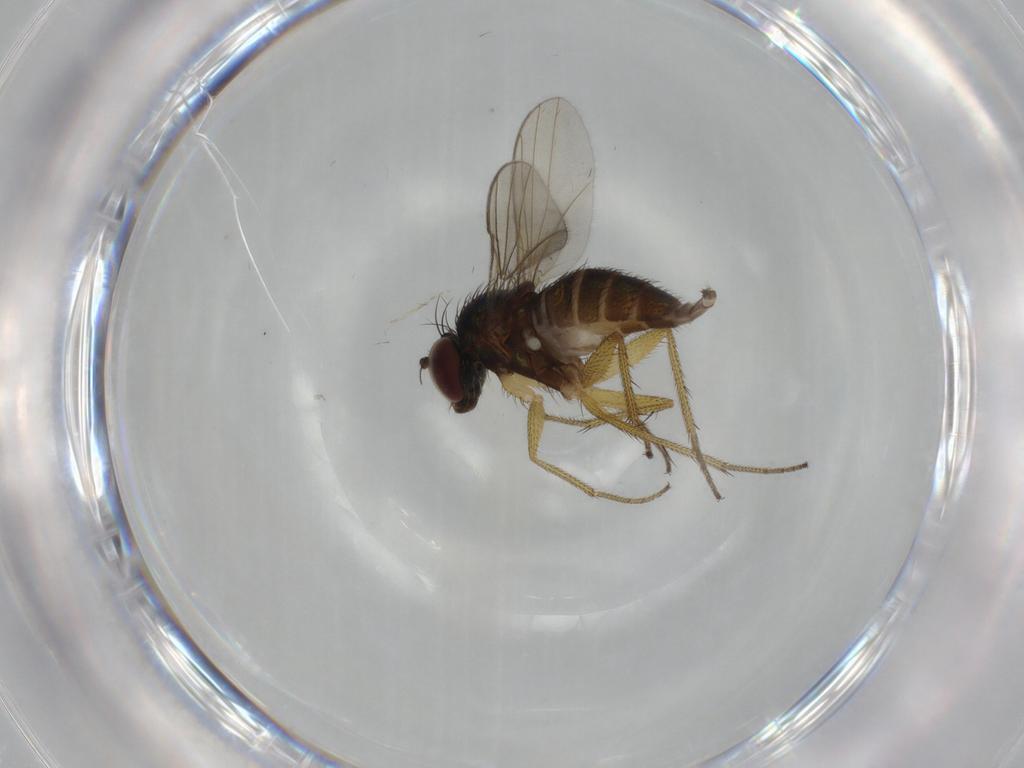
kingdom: Animalia
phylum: Arthropoda
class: Insecta
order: Diptera
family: Dolichopodidae
